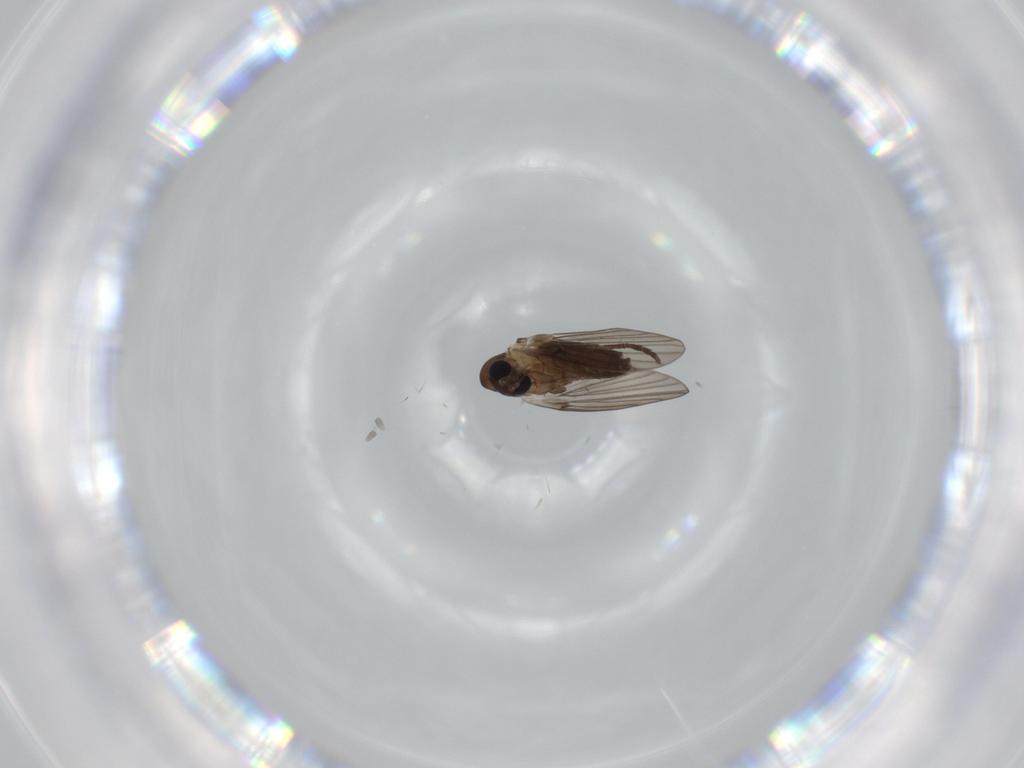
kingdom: Animalia
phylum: Arthropoda
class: Insecta
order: Diptera
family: Psychodidae
